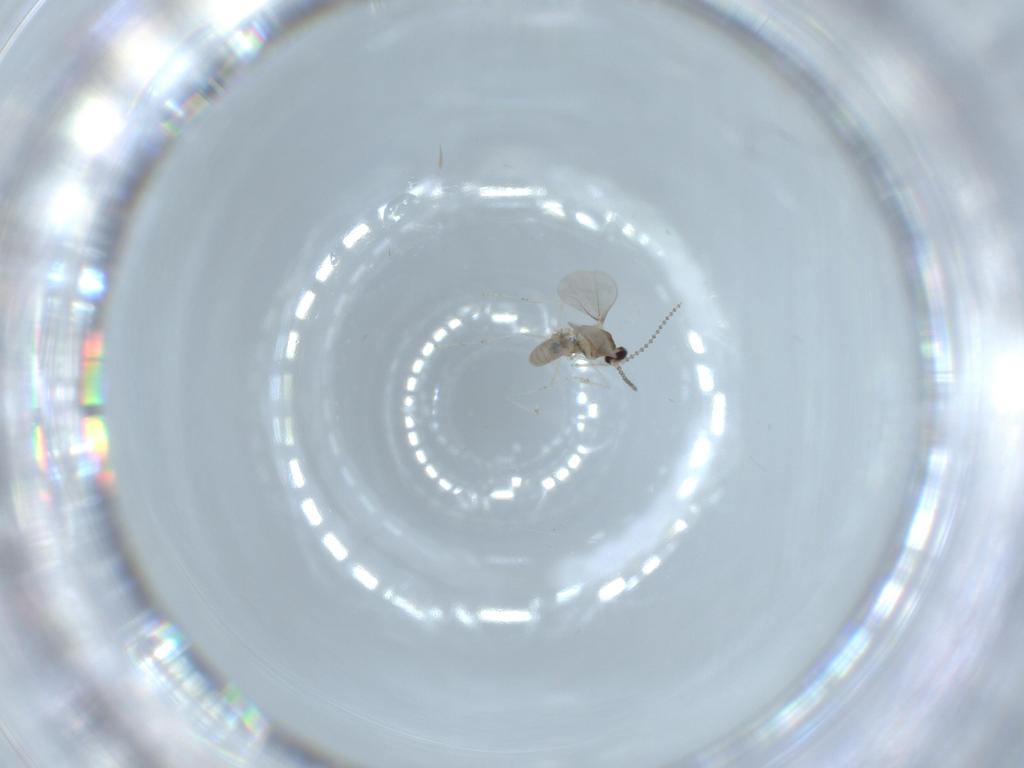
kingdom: Animalia
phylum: Arthropoda
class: Insecta
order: Diptera
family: Cecidomyiidae
